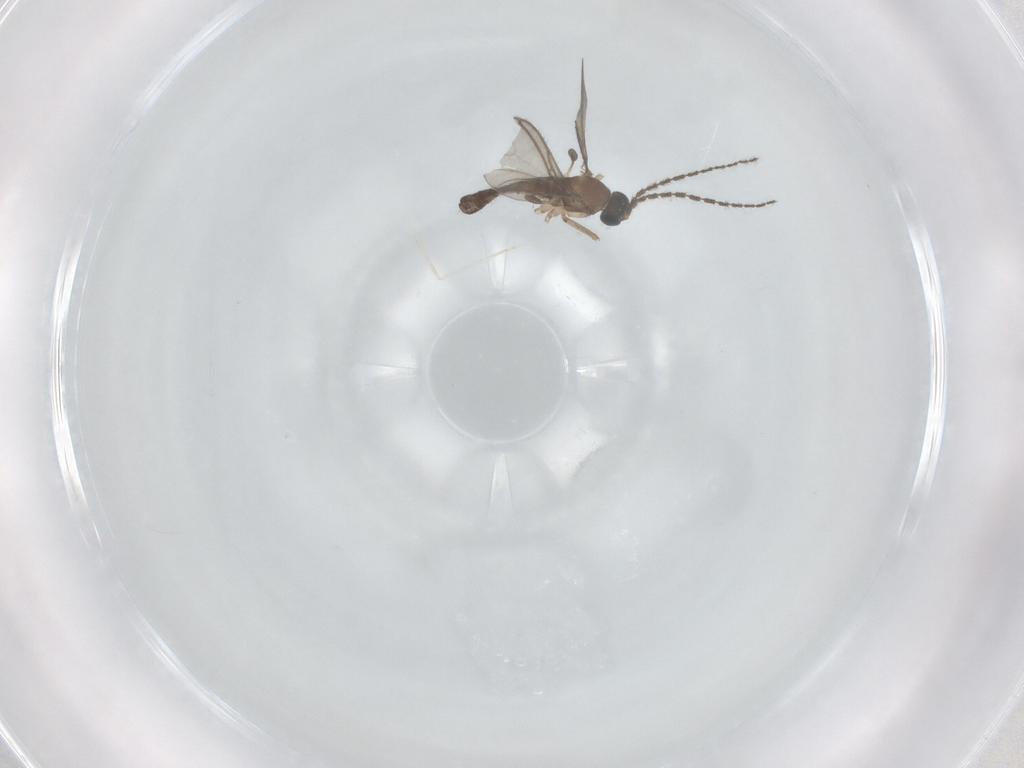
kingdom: Animalia
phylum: Arthropoda
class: Insecta
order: Diptera
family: Sciaridae
